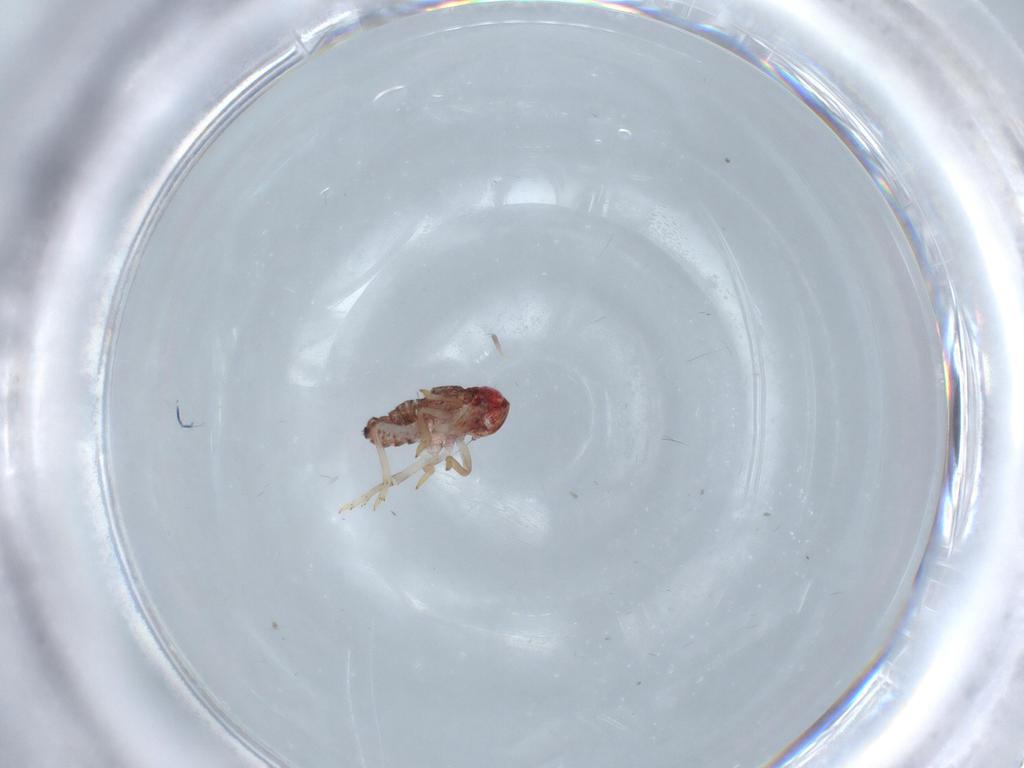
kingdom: Animalia
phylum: Arthropoda
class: Insecta
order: Hemiptera
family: Issidae
